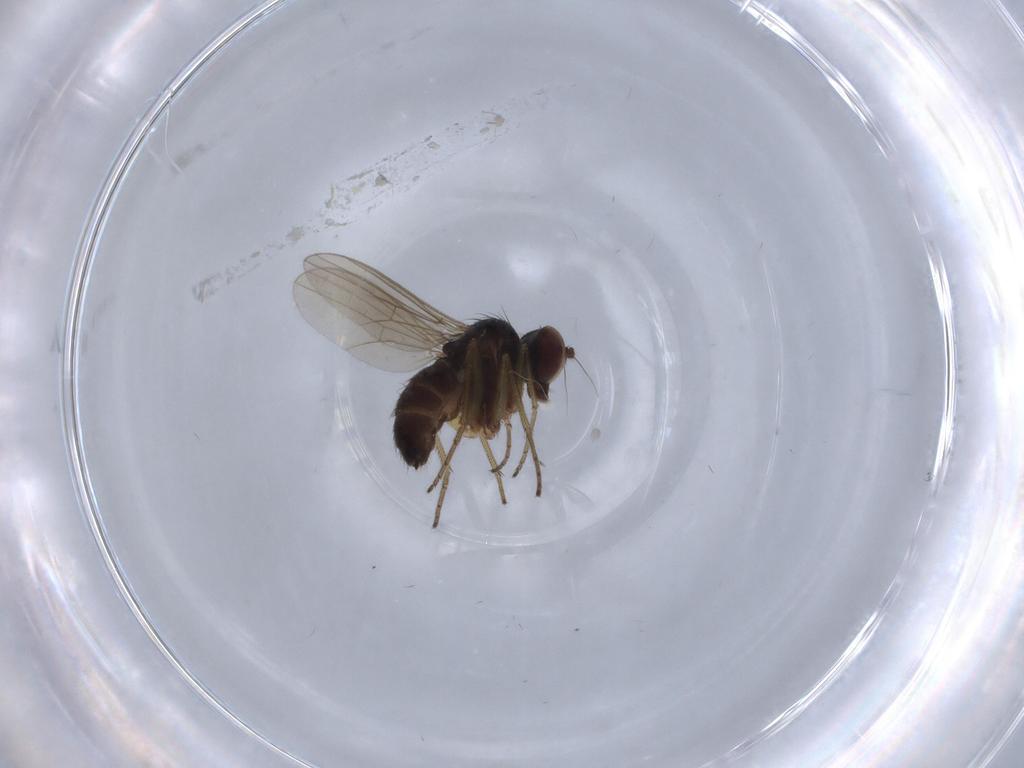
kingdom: Animalia
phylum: Arthropoda
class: Insecta
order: Diptera
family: Dolichopodidae
